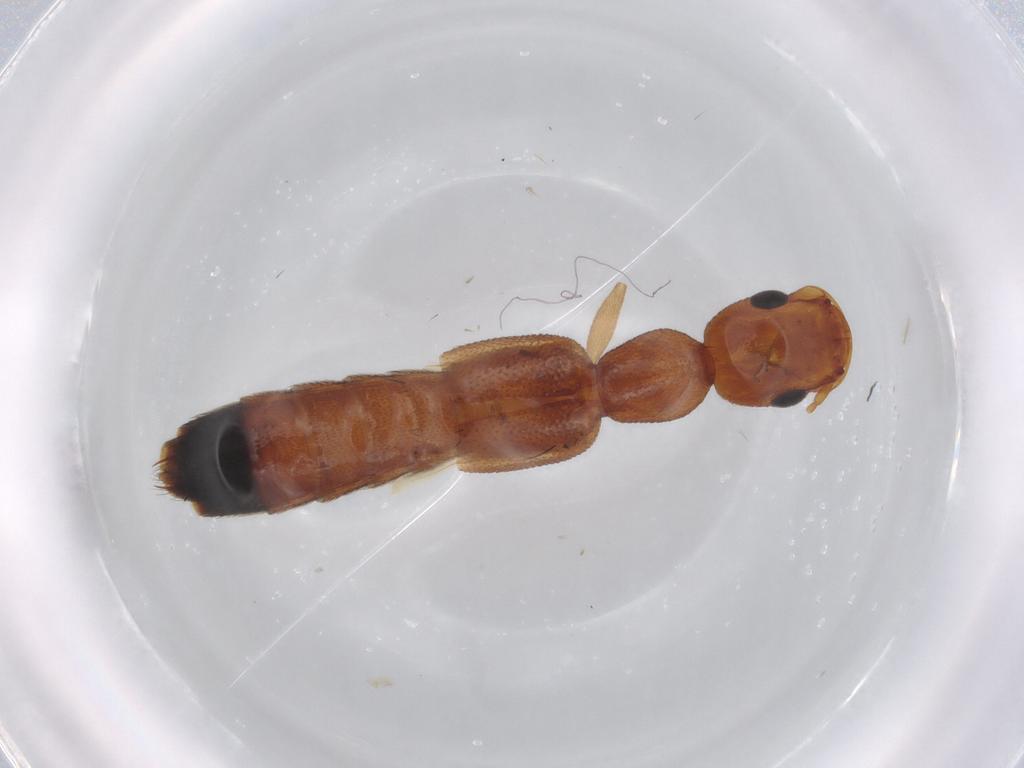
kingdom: Animalia
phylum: Arthropoda
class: Insecta
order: Coleoptera
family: Staphylinidae
